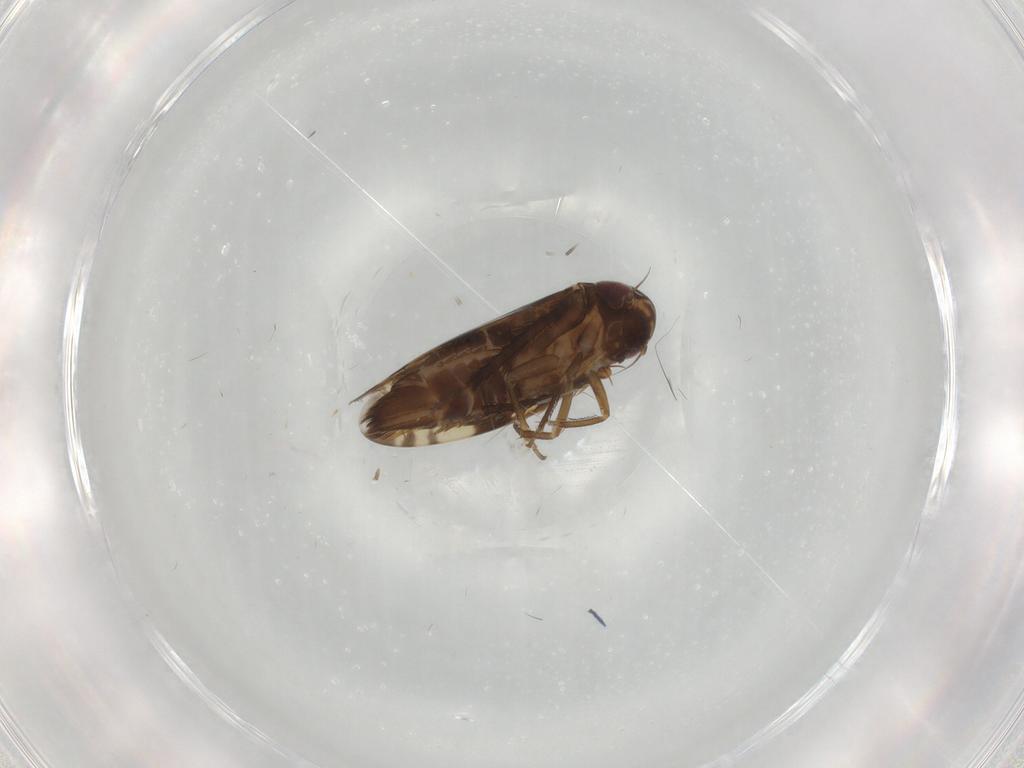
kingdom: Animalia
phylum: Arthropoda
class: Insecta
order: Hemiptera
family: Cicadellidae
